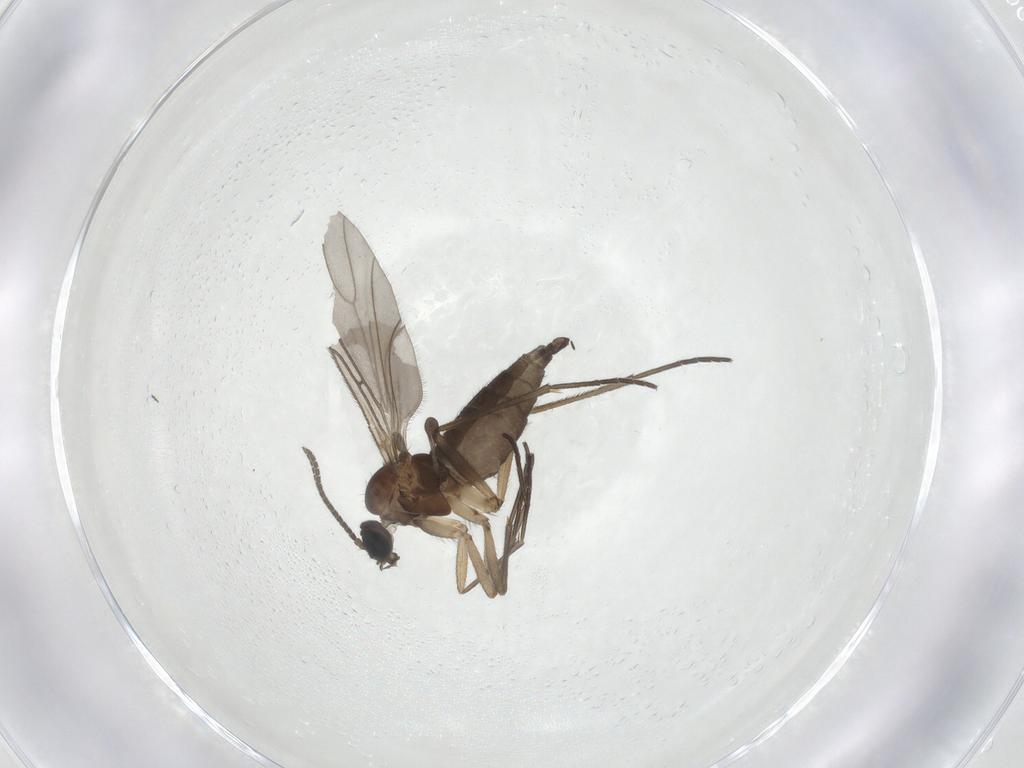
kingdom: Animalia
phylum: Arthropoda
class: Insecta
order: Diptera
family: Sciaridae
